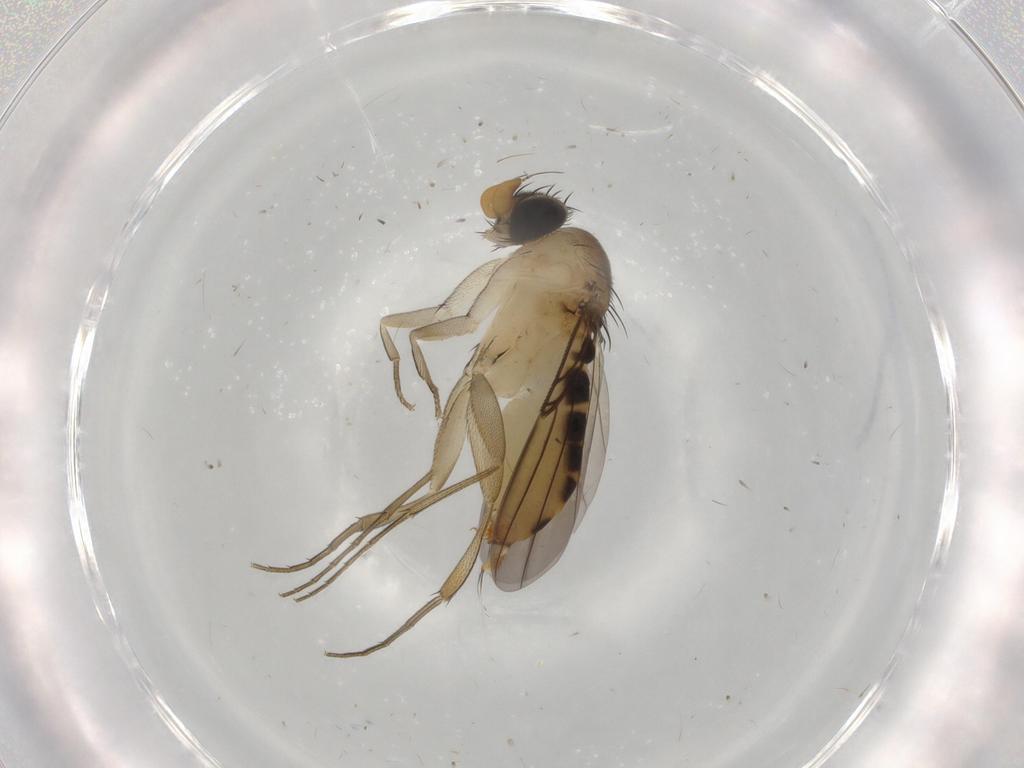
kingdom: Animalia
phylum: Arthropoda
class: Insecta
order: Diptera
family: Phoridae
